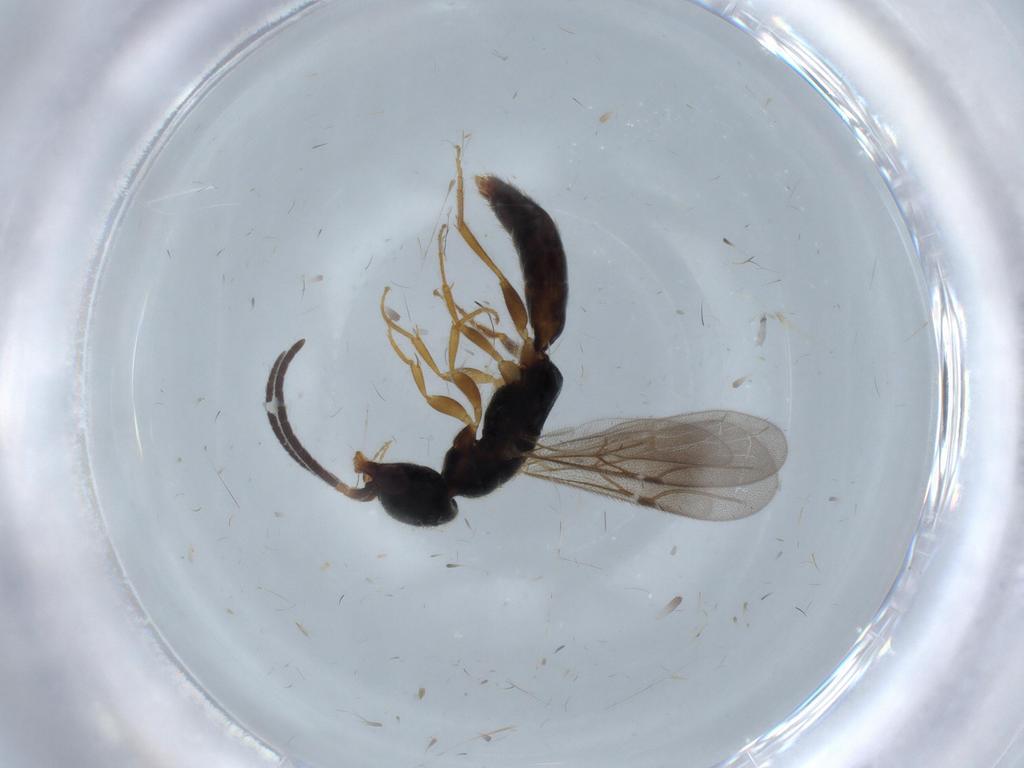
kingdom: Animalia
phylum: Arthropoda
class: Insecta
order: Hymenoptera
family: Bethylidae
